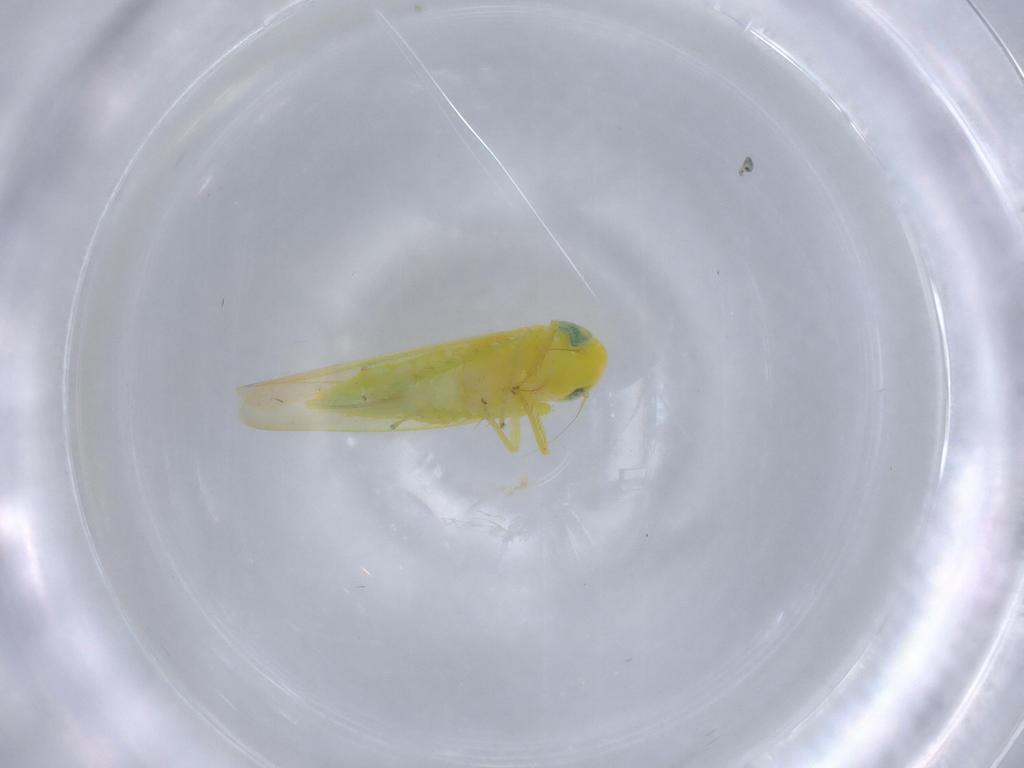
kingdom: Animalia
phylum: Arthropoda
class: Insecta
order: Hemiptera
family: Cicadellidae
